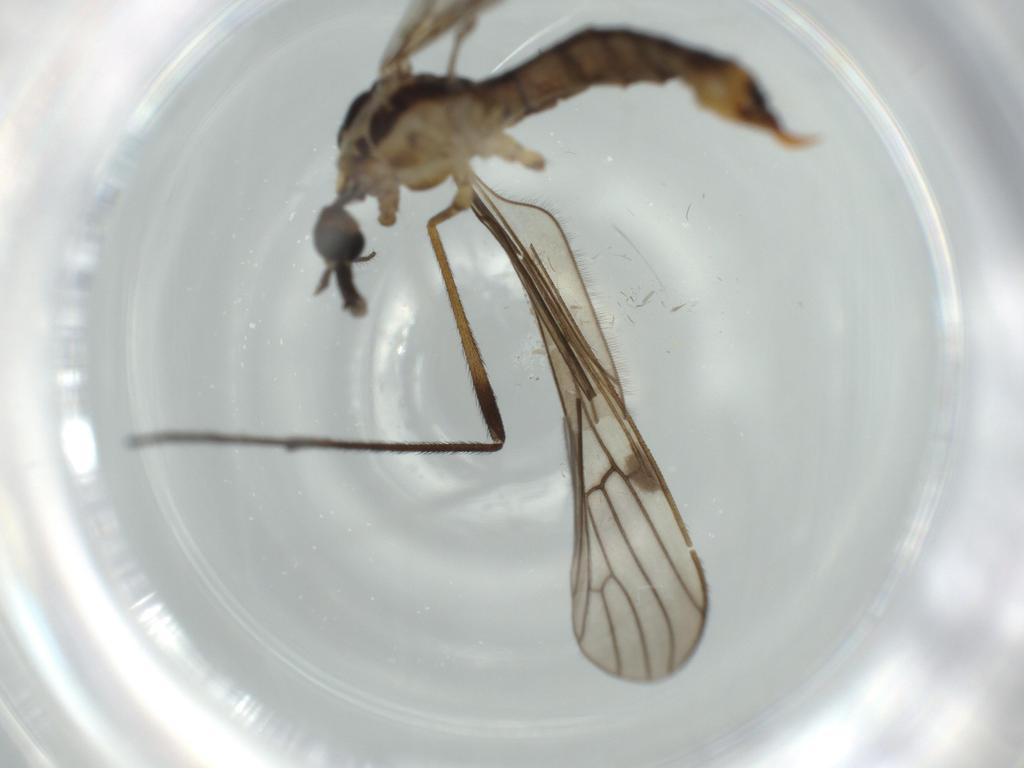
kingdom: Animalia
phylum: Arthropoda
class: Insecta
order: Diptera
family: Limoniidae
